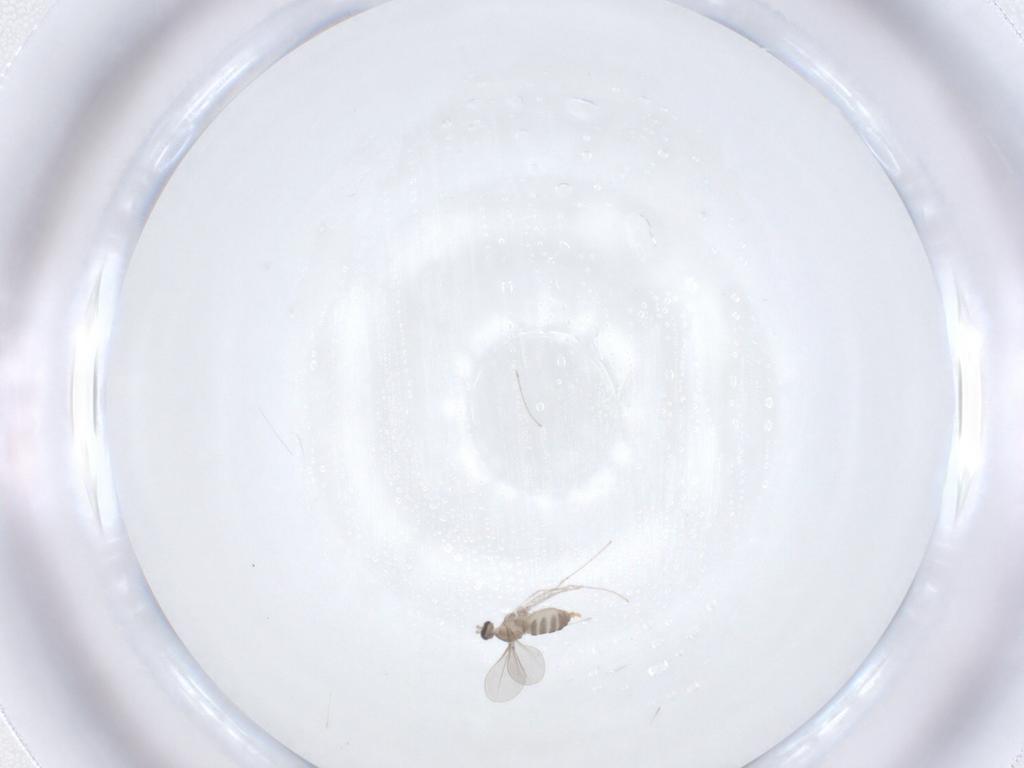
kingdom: Animalia
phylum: Arthropoda
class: Insecta
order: Diptera
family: Cecidomyiidae
